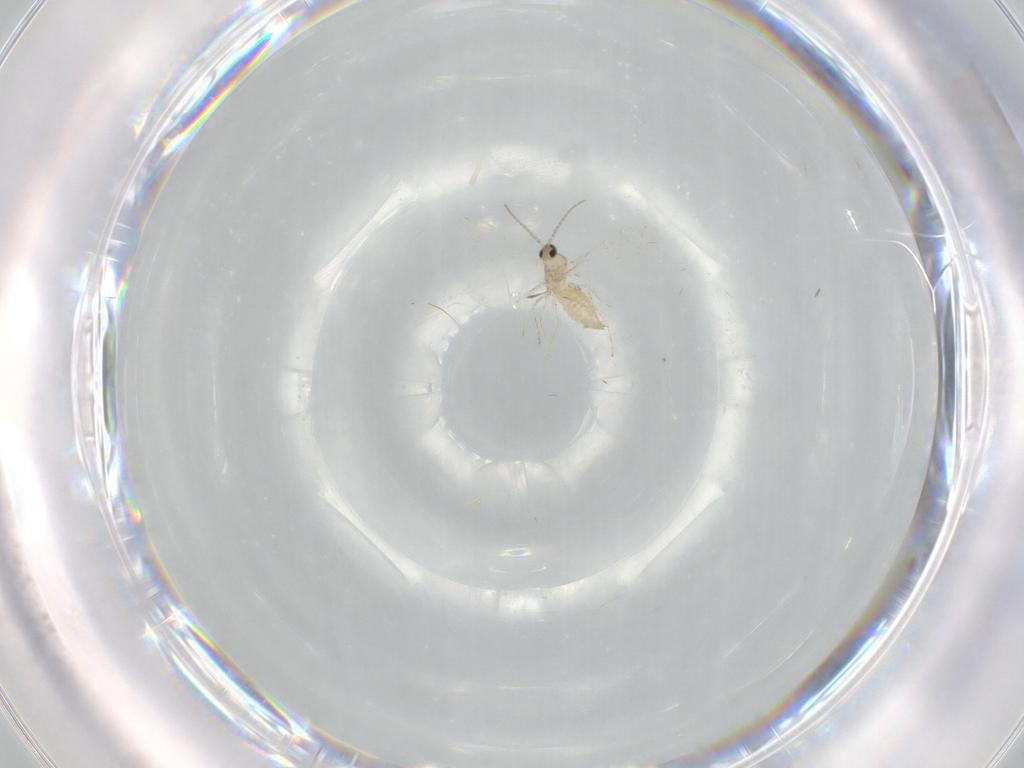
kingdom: Animalia
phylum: Arthropoda
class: Insecta
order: Diptera
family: Cecidomyiidae
